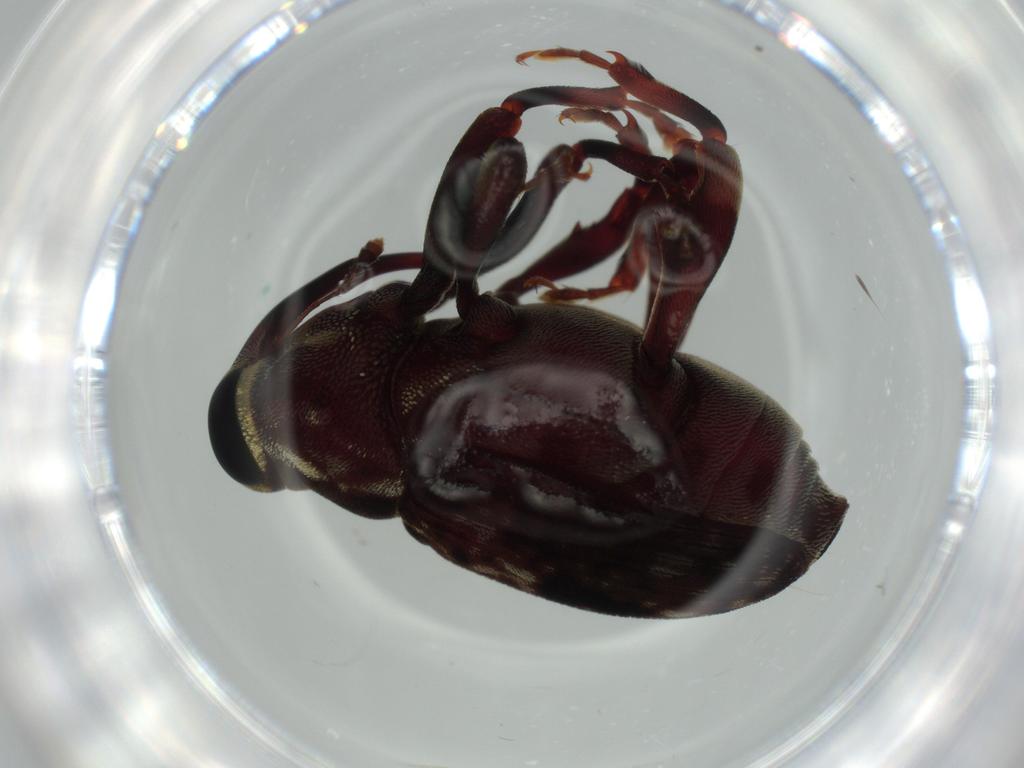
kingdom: Animalia
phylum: Arthropoda
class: Insecta
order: Coleoptera
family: Curculionidae
